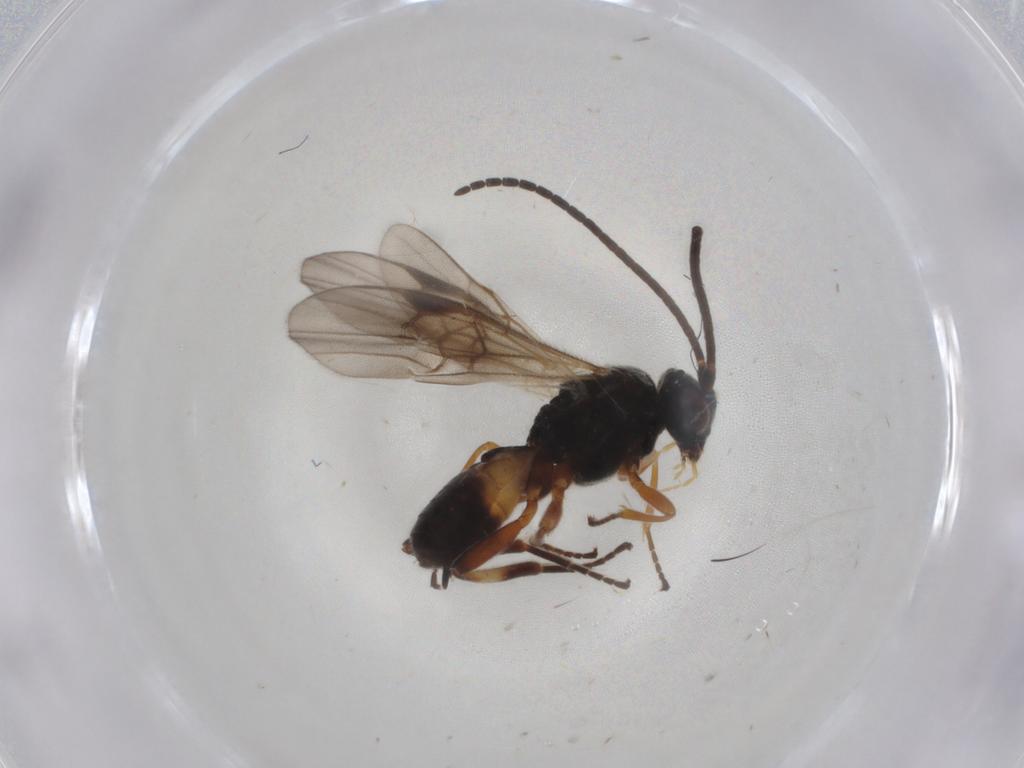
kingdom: Animalia
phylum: Arthropoda
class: Insecta
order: Hymenoptera
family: Braconidae
